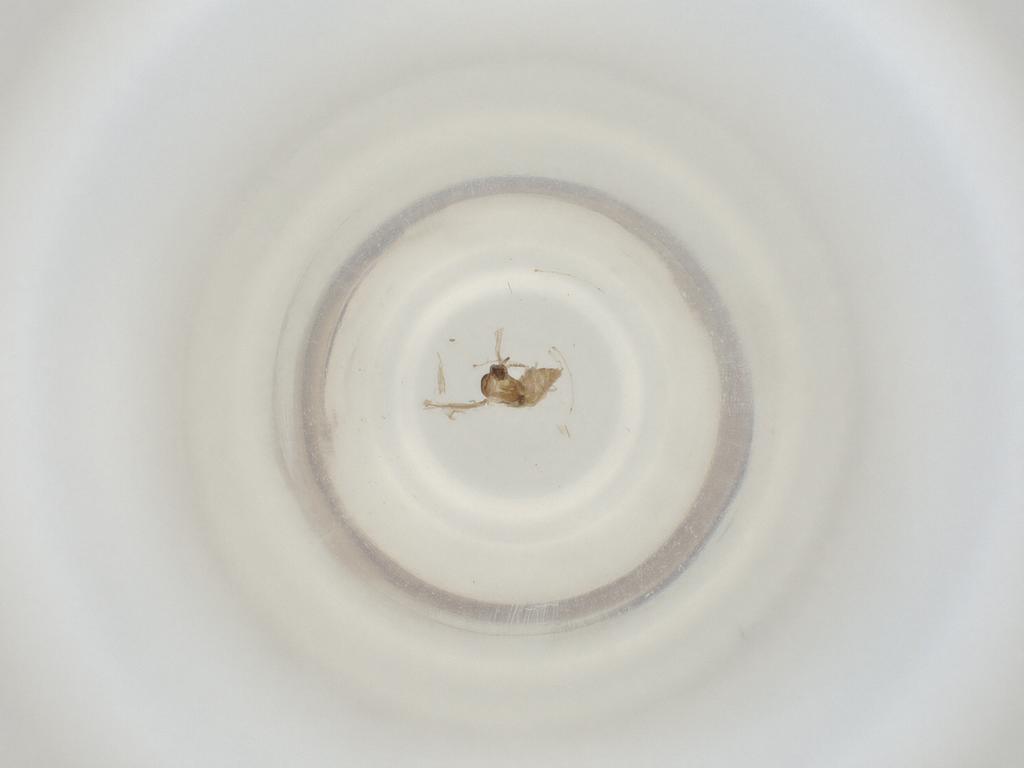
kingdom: Animalia
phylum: Arthropoda
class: Insecta
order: Diptera
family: Cecidomyiidae
